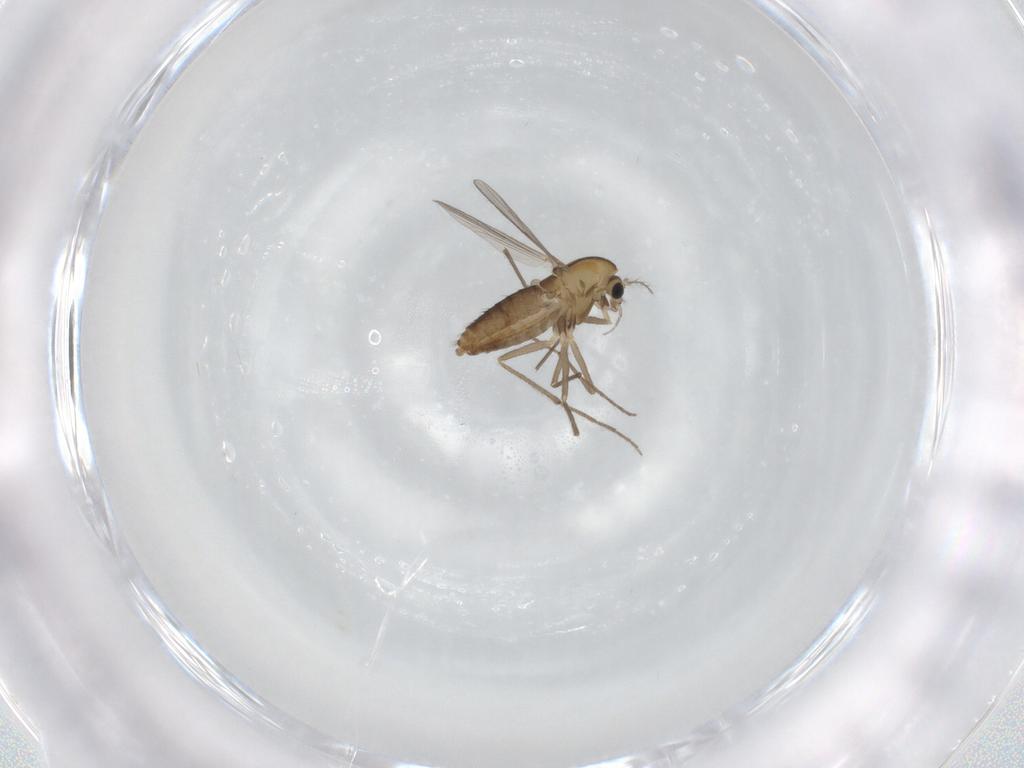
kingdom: Animalia
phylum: Arthropoda
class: Insecta
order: Diptera
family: Chironomidae
